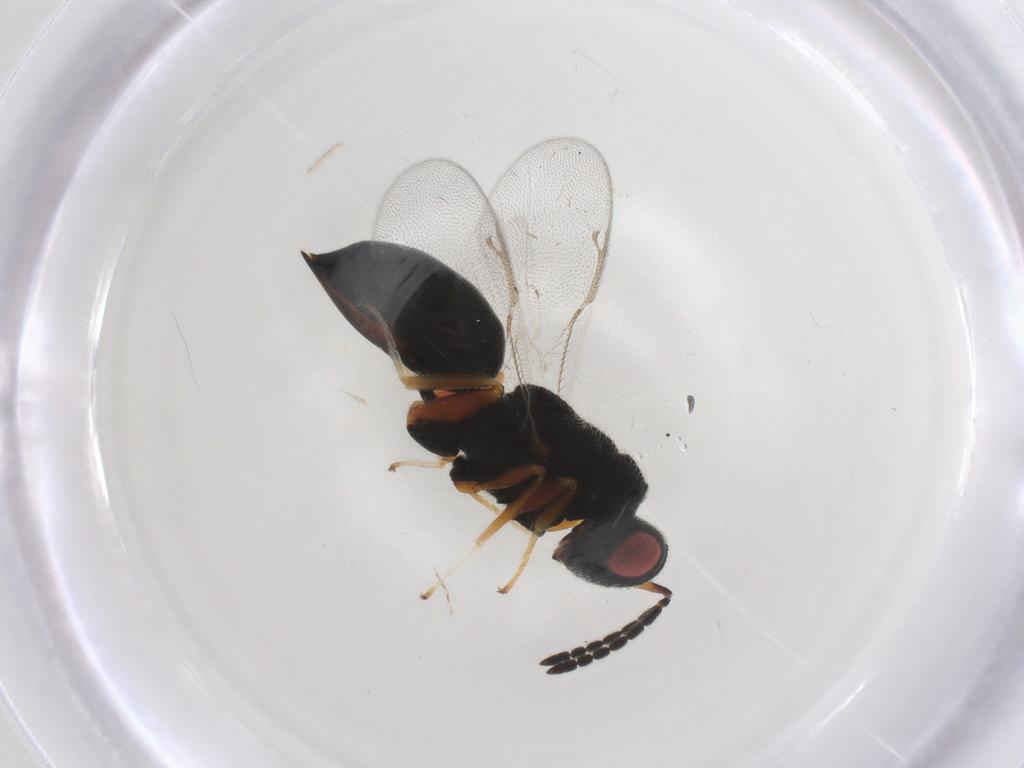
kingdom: Animalia
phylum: Arthropoda
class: Insecta
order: Hymenoptera
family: Eurytomidae
